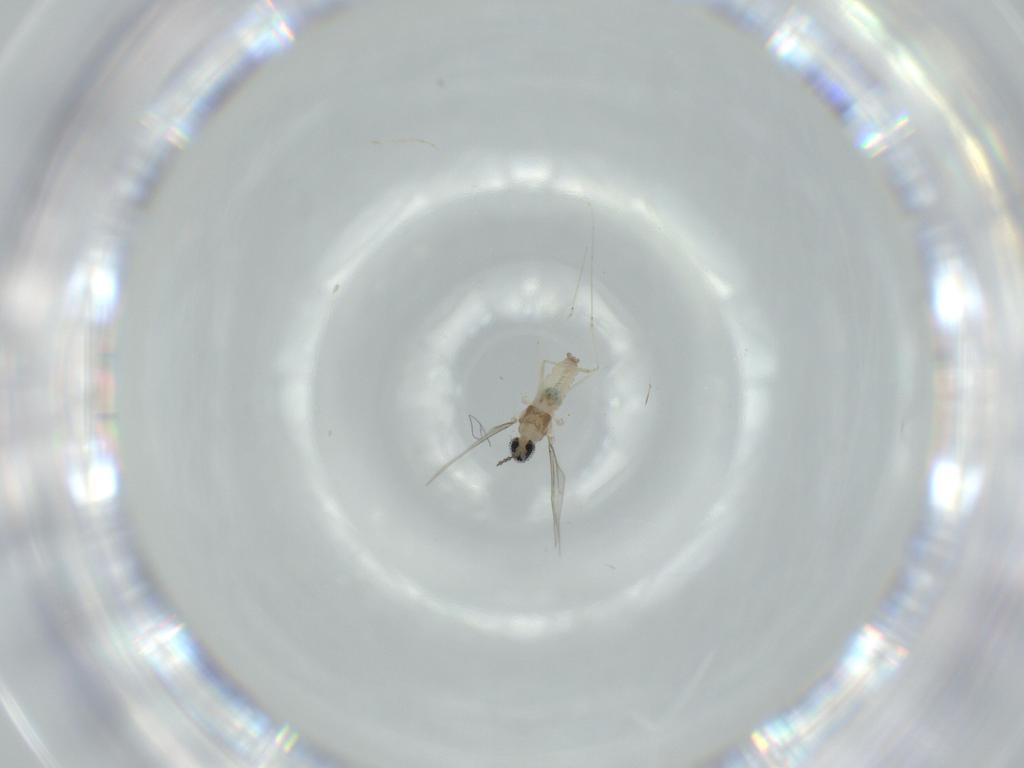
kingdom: Animalia
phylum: Arthropoda
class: Insecta
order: Diptera
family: Cecidomyiidae
